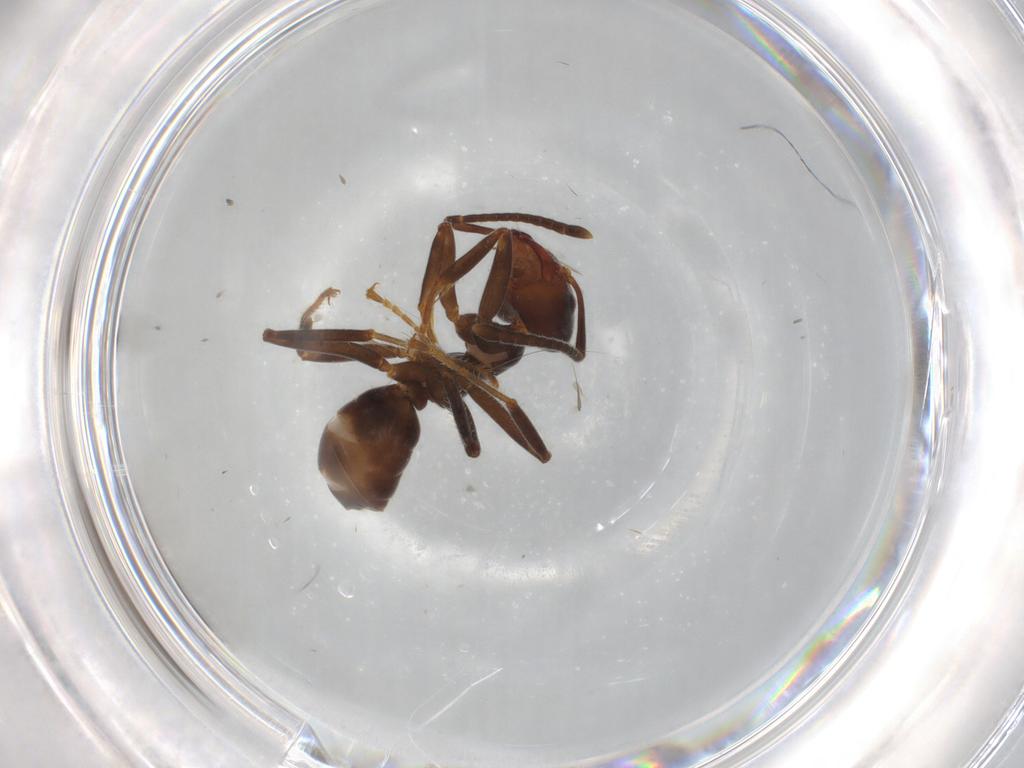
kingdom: Animalia
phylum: Arthropoda
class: Insecta
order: Hymenoptera
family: Formicidae
